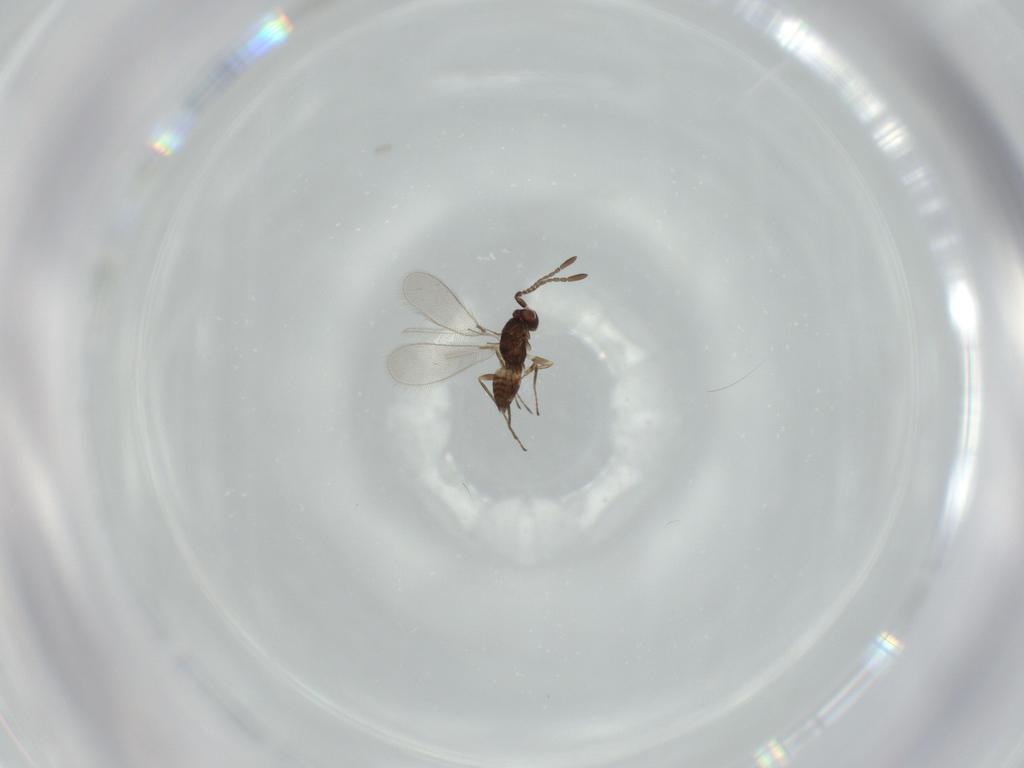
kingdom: Animalia
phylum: Arthropoda
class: Insecta
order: Hymenoptera
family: Mymaridae
